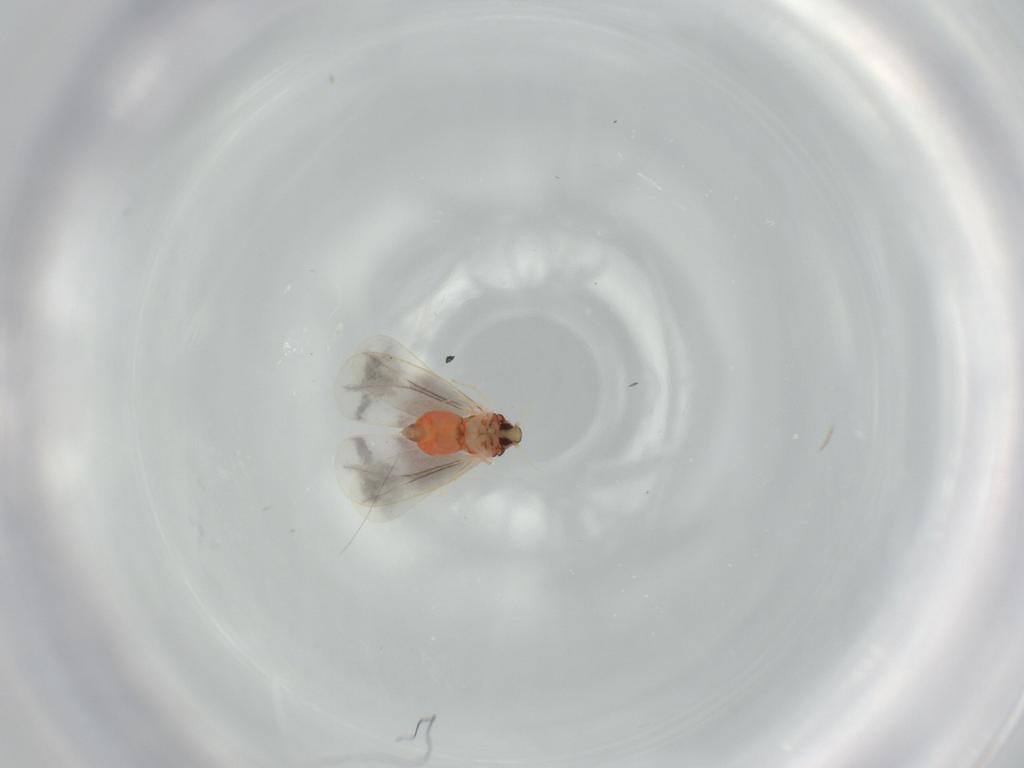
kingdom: Animalia
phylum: Arthropoda
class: Insecta
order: Hemiptera
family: Aleyrodidae
